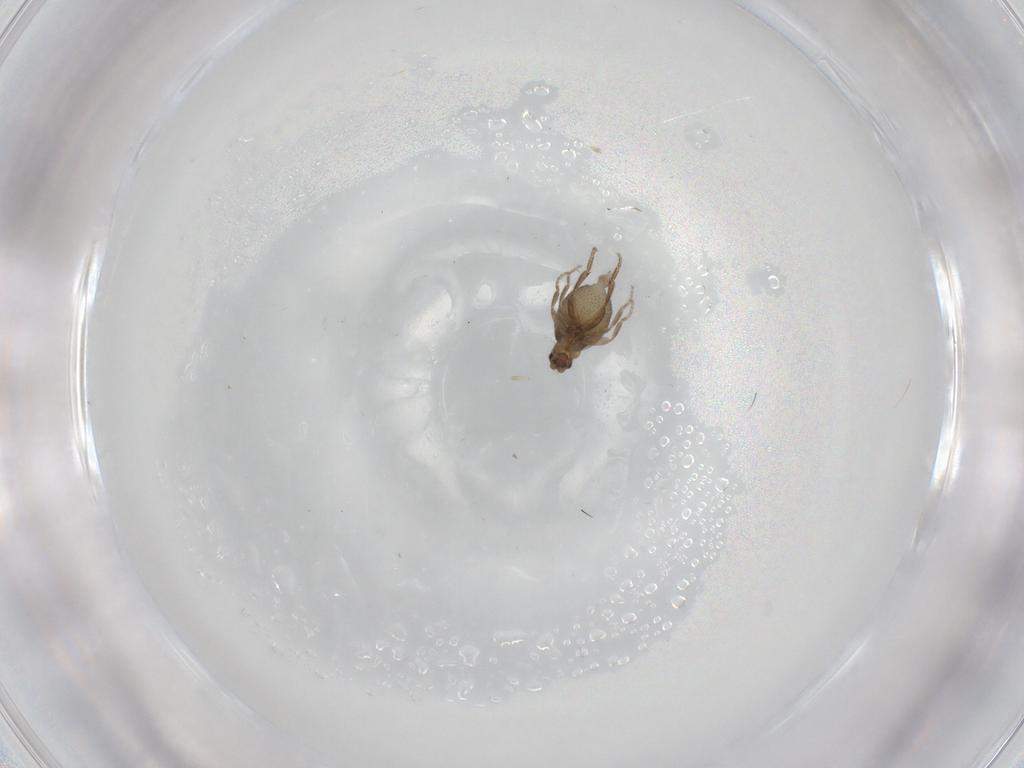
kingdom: Animalia
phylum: Arthropoda
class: Insecta
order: Diptera
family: Phoridae
